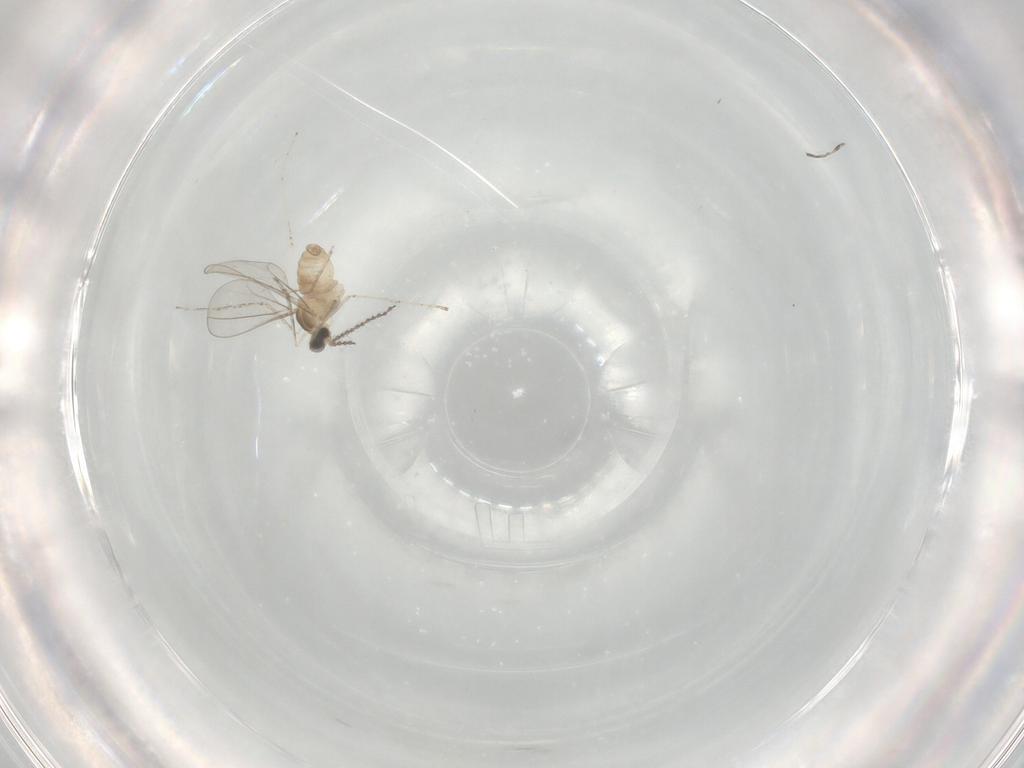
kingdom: Animalia
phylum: Arthropoda
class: Insecta
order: Diptera
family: Cecidomyiidae
